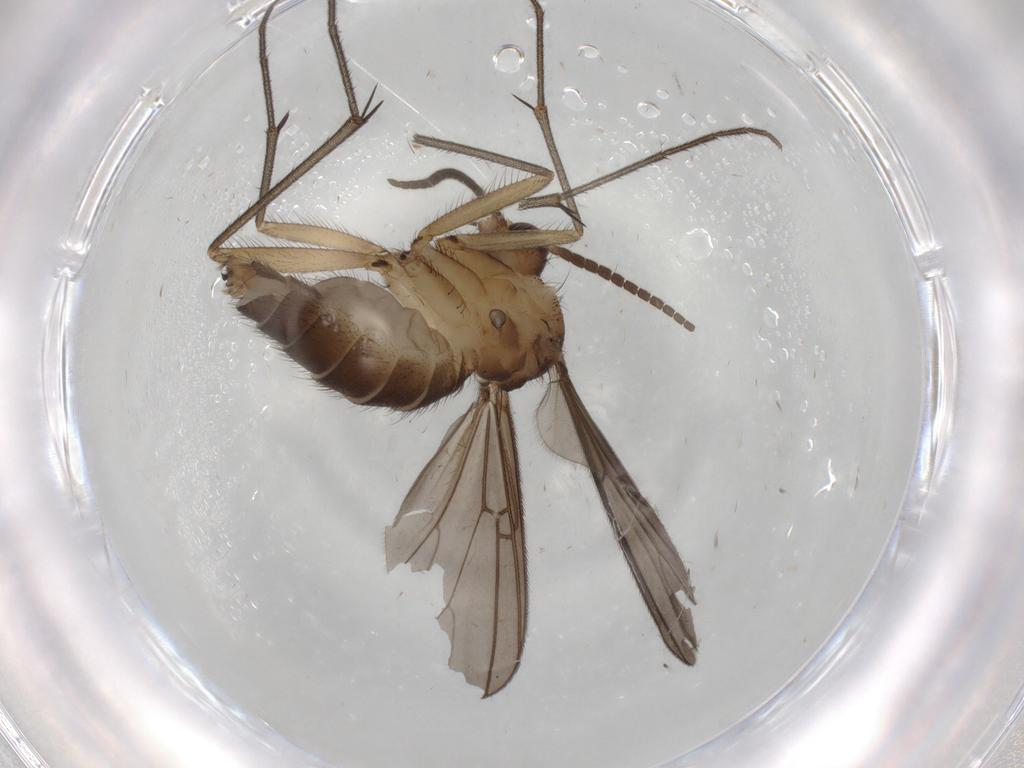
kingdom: Animalia
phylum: Arthropoda
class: Insecta
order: Diptera
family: Mycetophilidae
